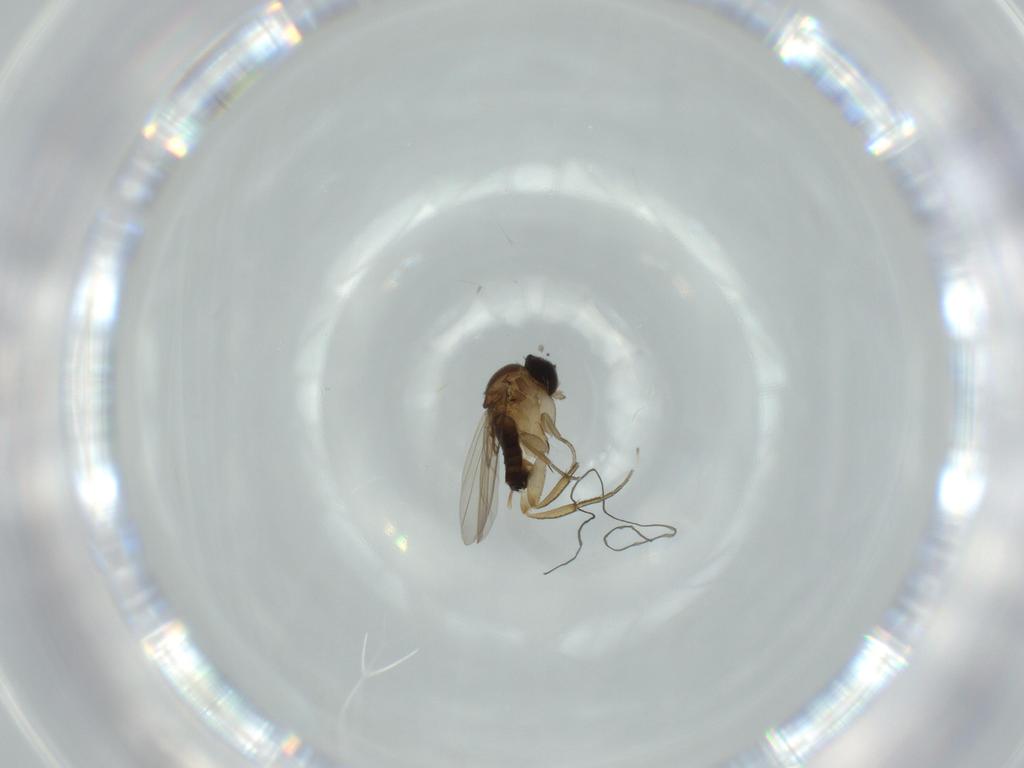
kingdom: Animalia
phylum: Arthropoda
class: Insecta
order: Diptera
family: Phoridae
